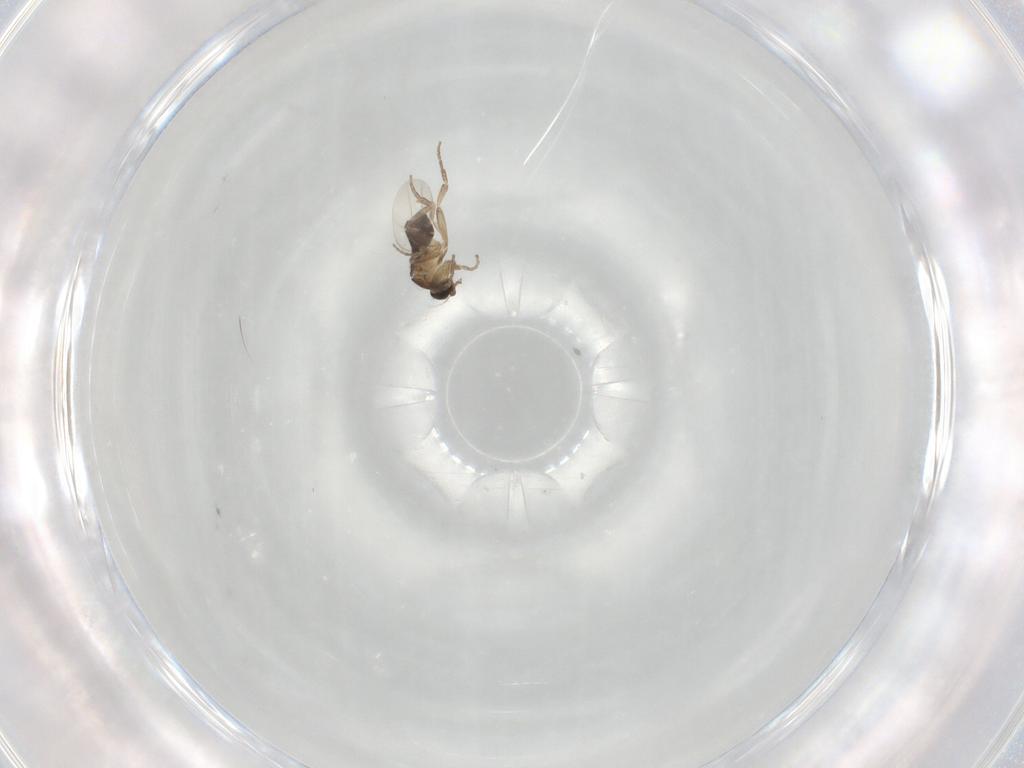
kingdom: Animalia
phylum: Arthropoda
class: Insecta
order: Diptera
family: Phoridae
